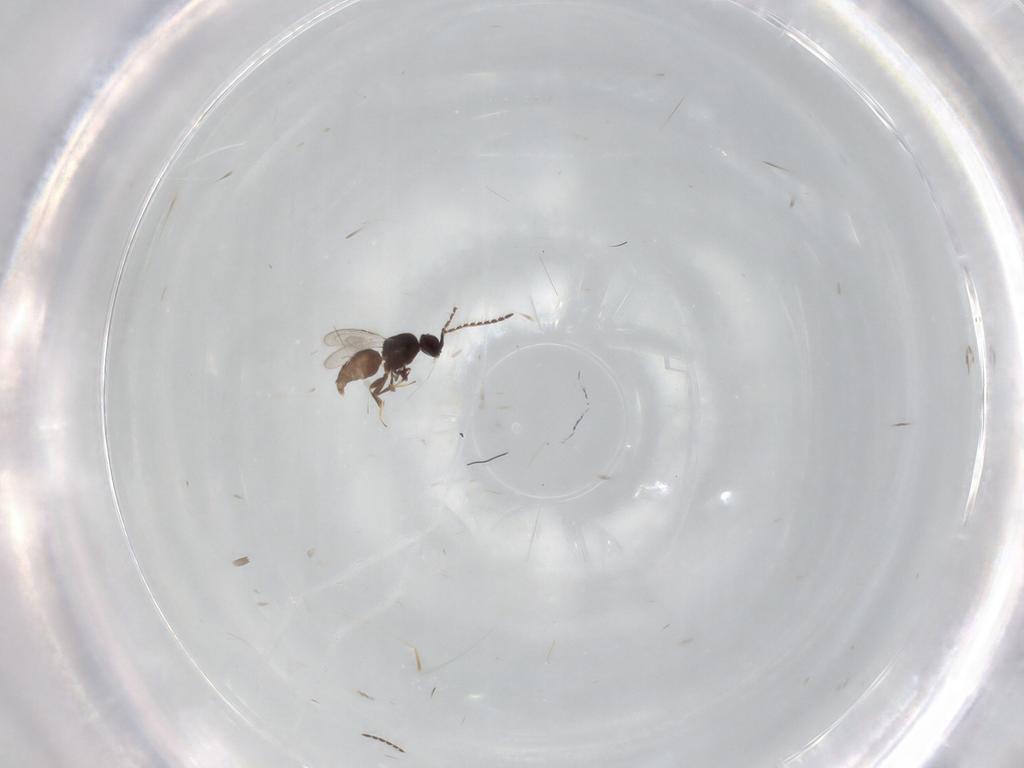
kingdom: Animalia
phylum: Arthropoda
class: Insecta
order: Hymenoptera
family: Crabronidae
